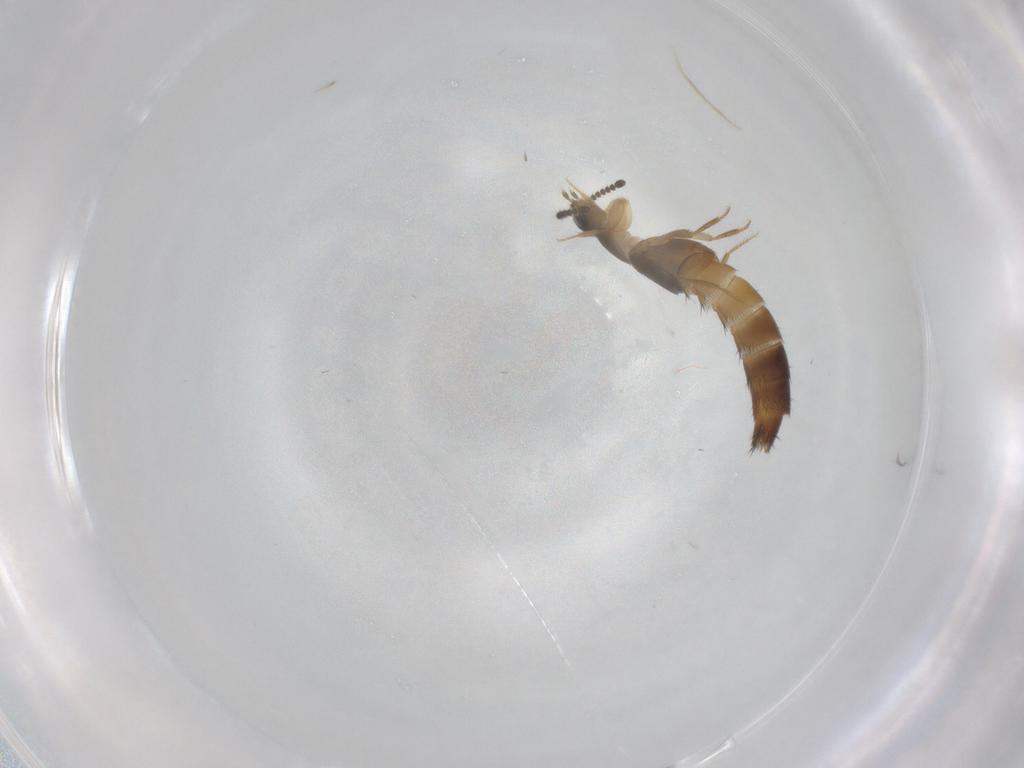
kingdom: Animalia
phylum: Arthropoda
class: Insecta
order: Coleoptera
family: Staphylinidae
